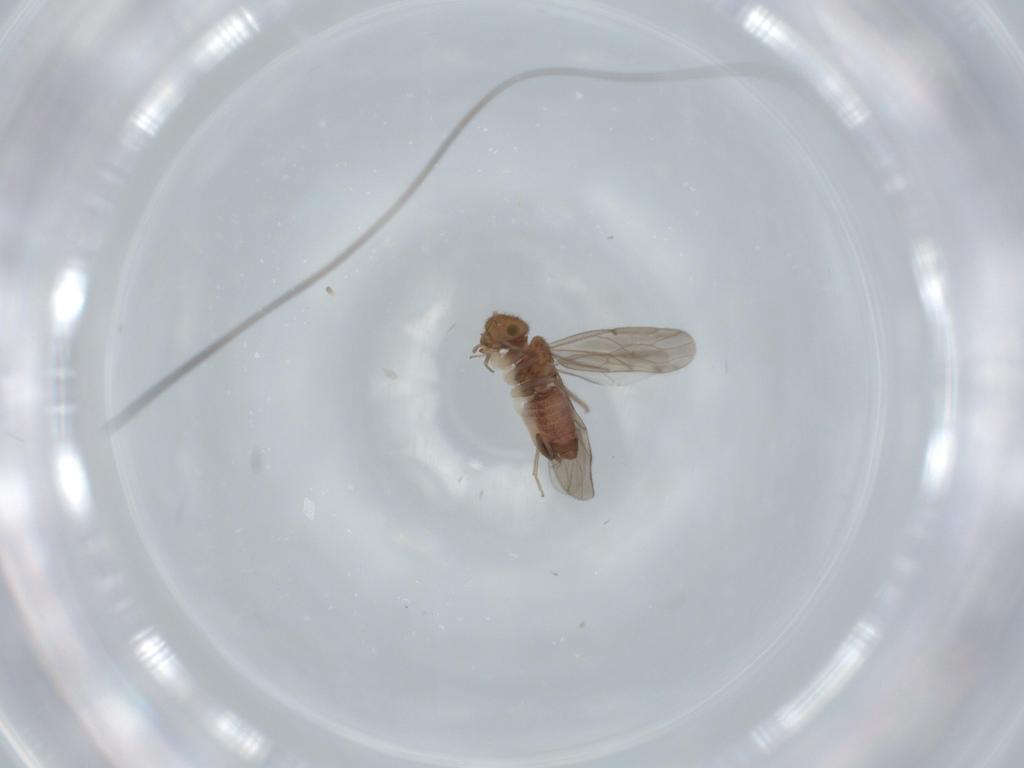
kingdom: Animalia
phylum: Arthropoda
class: Insecta
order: Psocodea
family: Ectopsocidae
